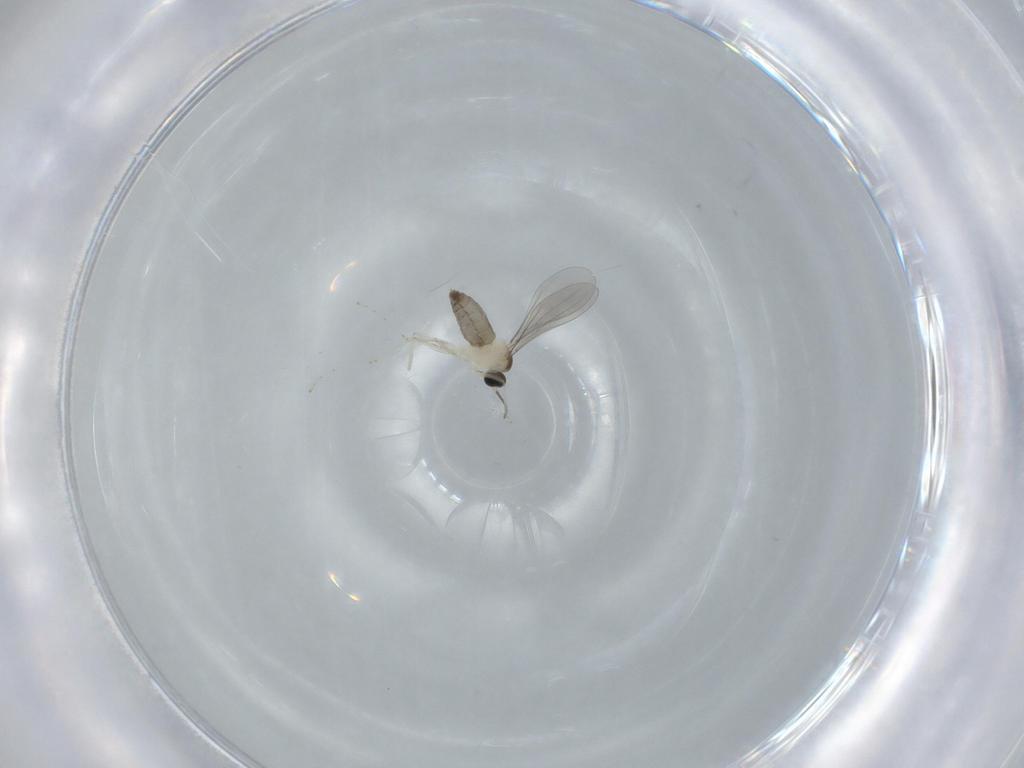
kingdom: Animalia
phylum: Arthropoda
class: Insecta
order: Diptera
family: Cecidomyiidae
